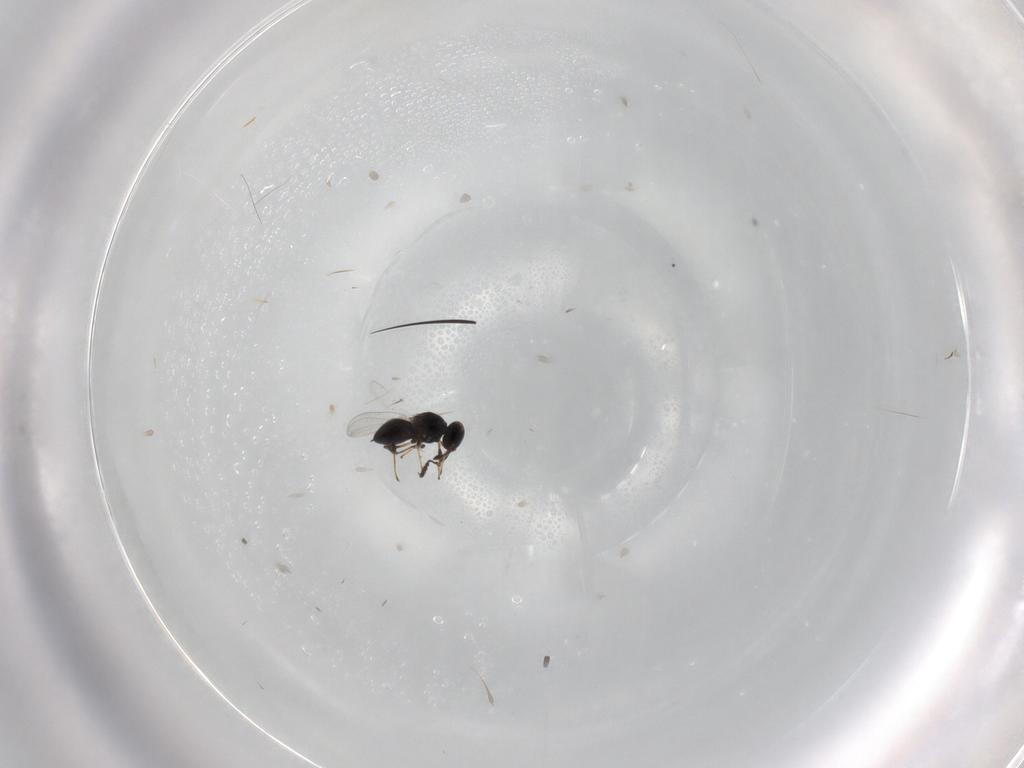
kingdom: Animalia
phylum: Arthropoda
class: Insecta
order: Hymenoptera
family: Platygastridae
